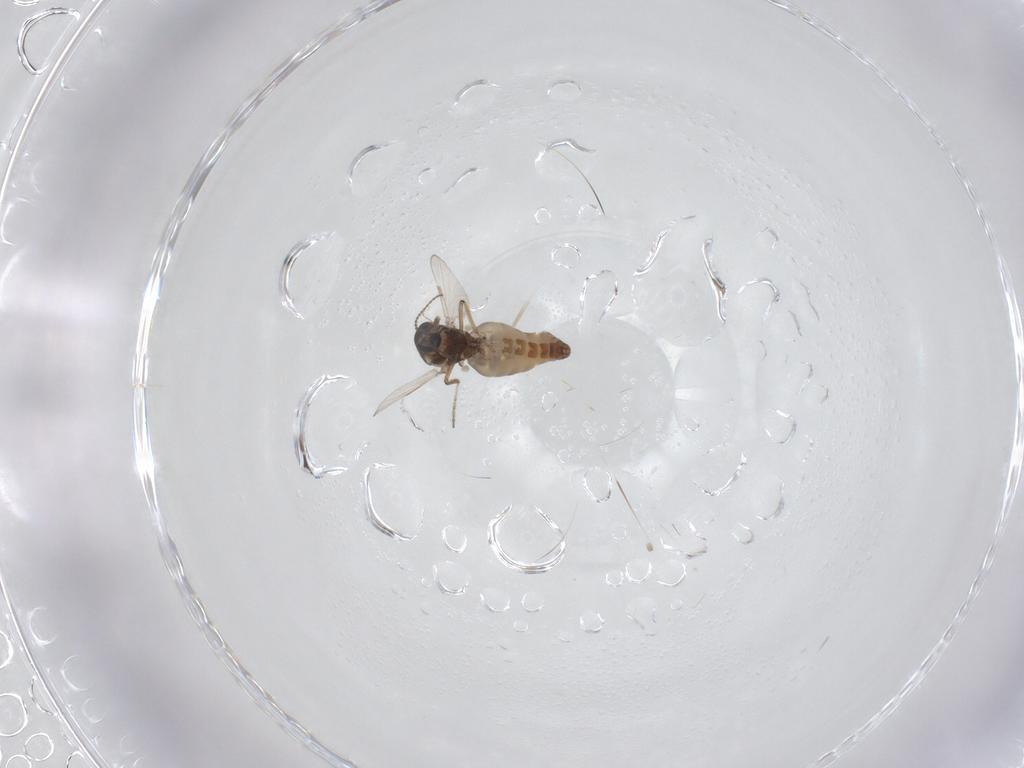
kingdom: Animalia
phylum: Arthropoda
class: Insecta
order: Diptera
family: Ceratopogonidae
